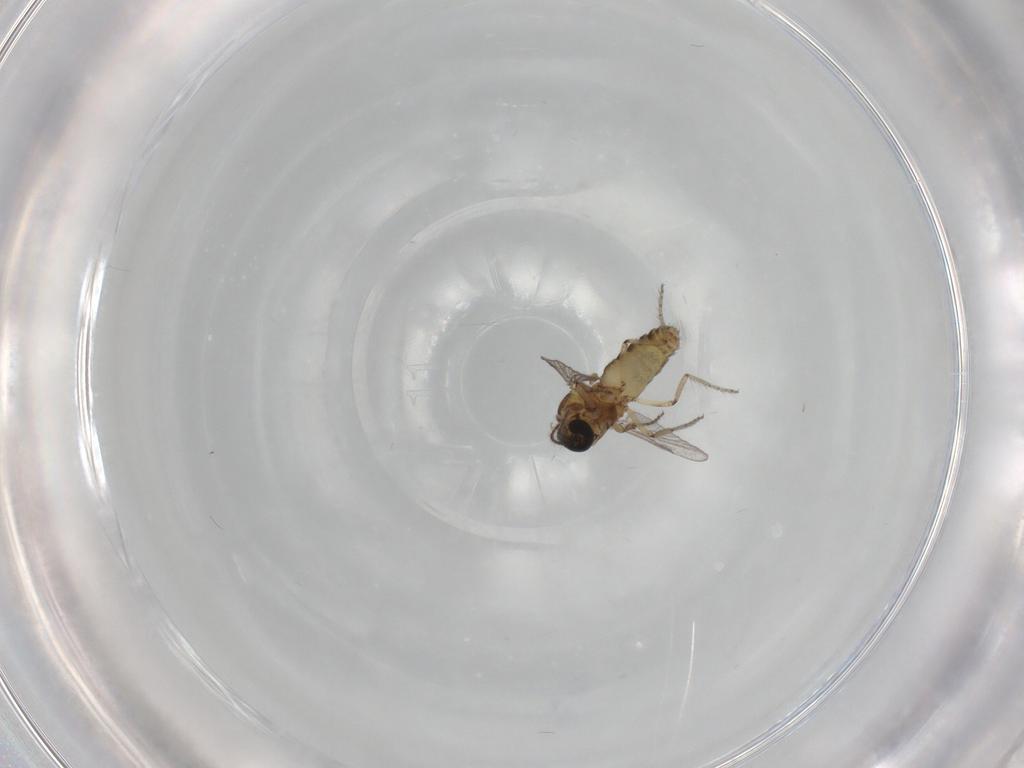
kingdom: Animalia
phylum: Arthropoda
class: Insecta
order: Diptera
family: Ceratopogonidae
